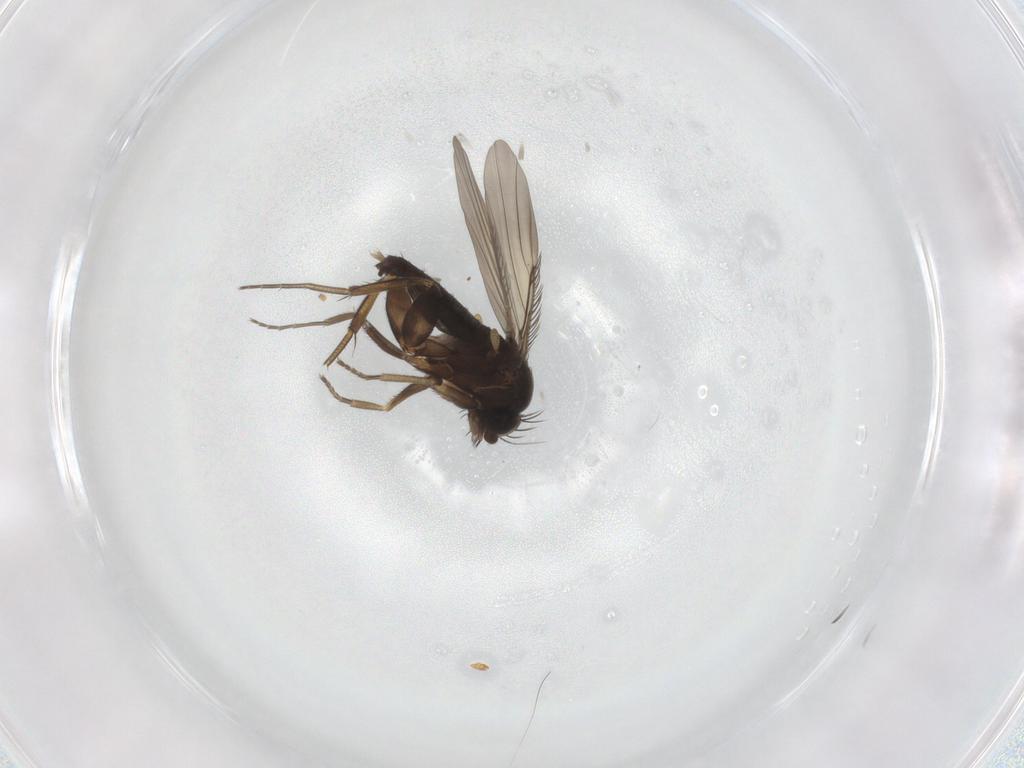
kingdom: Animalia
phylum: Arthropoda
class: Insecta
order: Diptera
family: Phoridae
